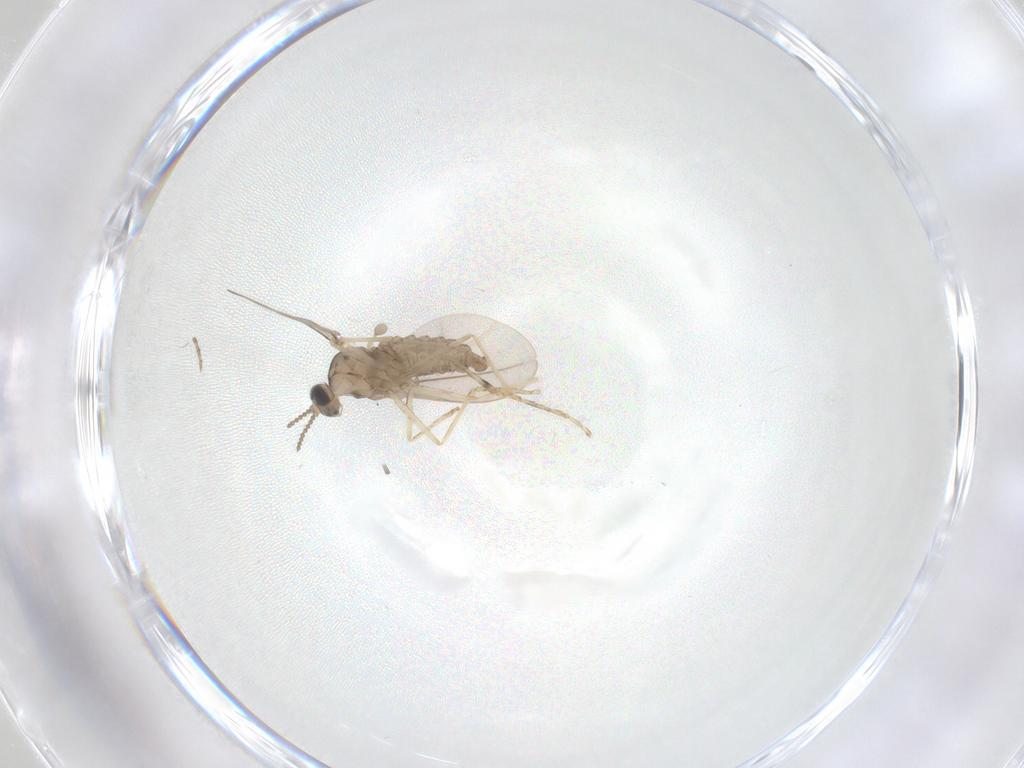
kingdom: Animalia
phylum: Arthropoda
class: Insecta
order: Diptera
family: Cecidomyiidae
